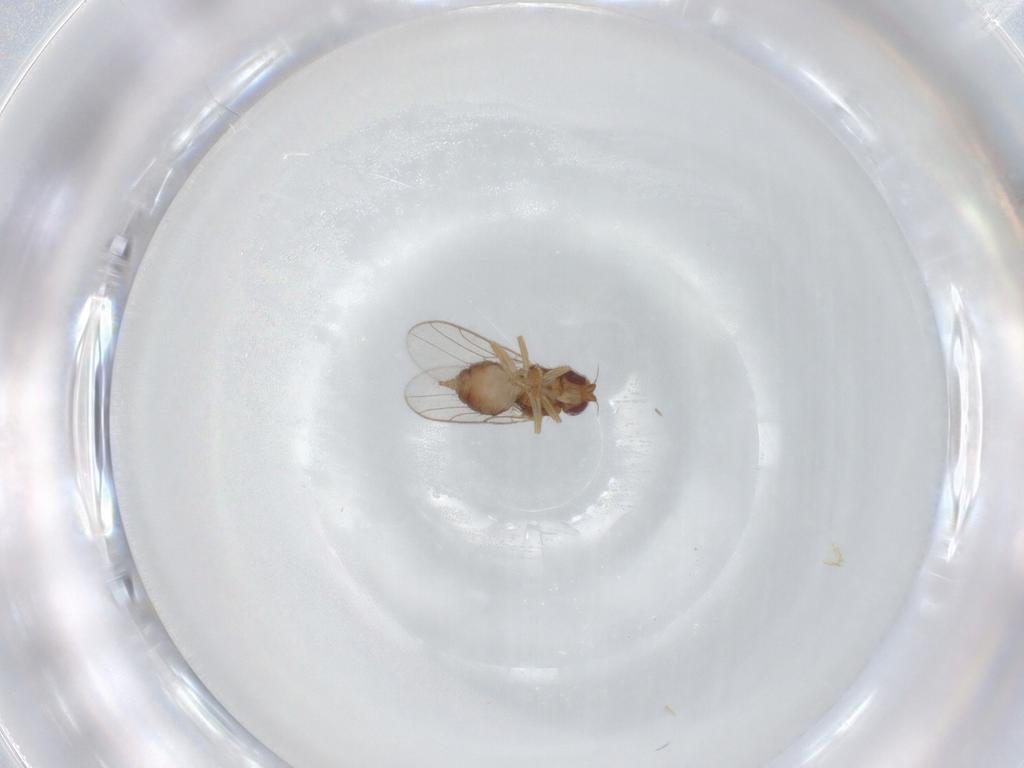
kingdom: Animalia
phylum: Arthropoda
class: Insecta
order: Diptera
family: Chloropidae
